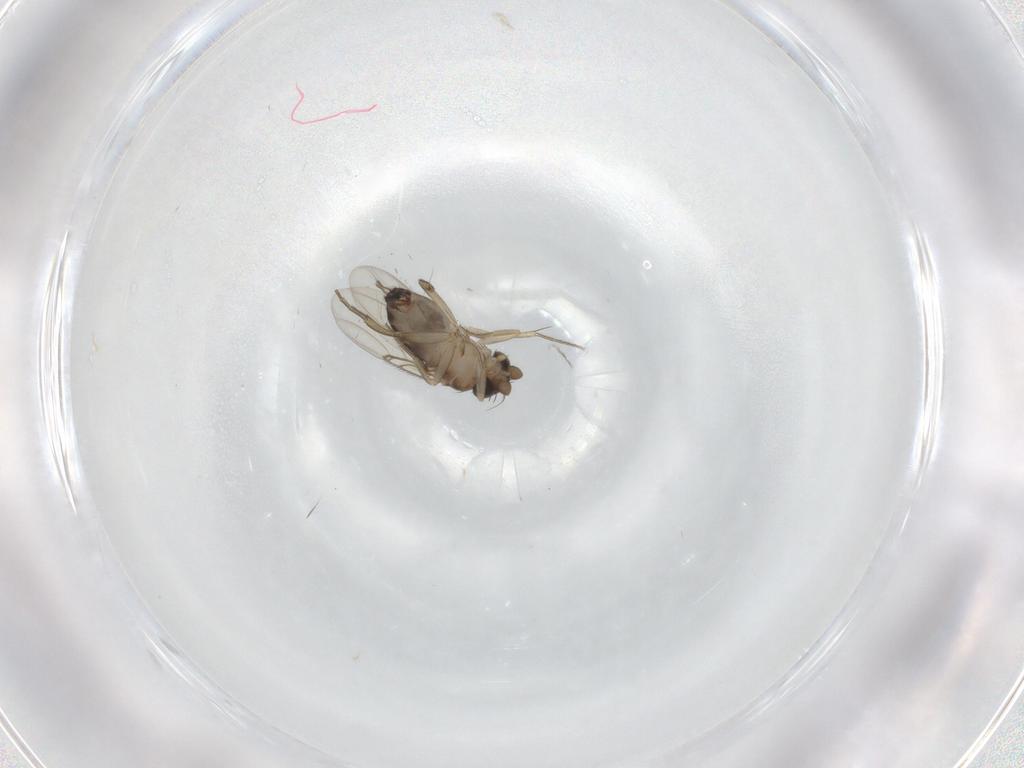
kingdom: Animalia
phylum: Arthropoda
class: Insecta
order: Diptera
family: Phoridae
